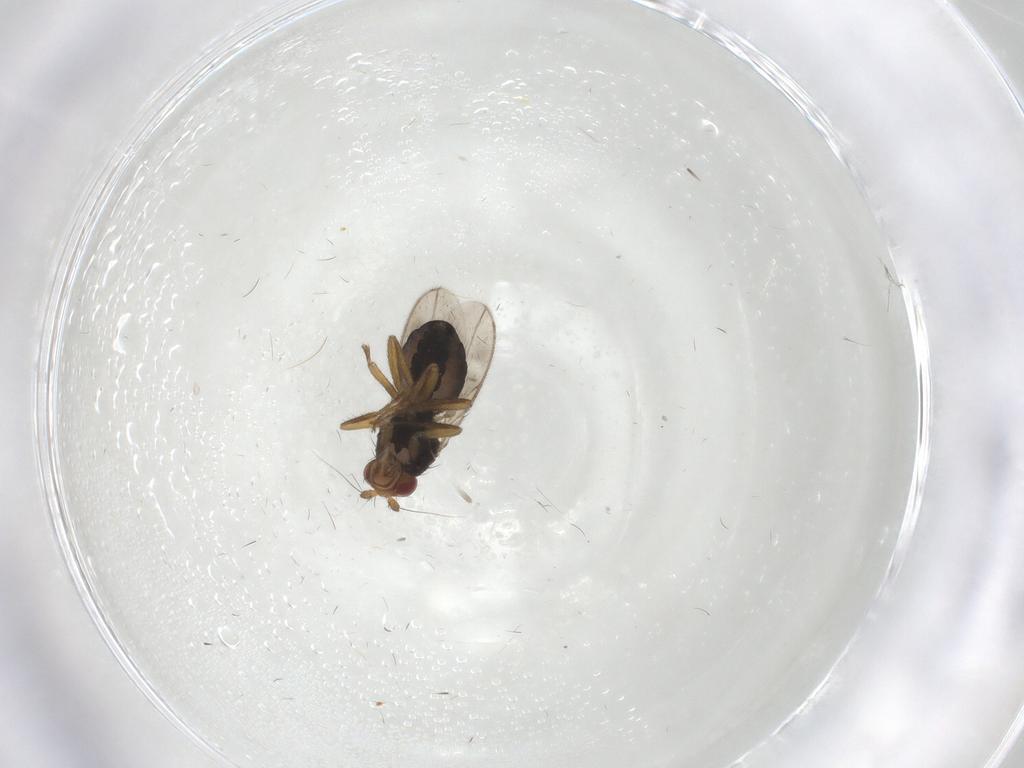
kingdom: Animalia
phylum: Arthropoda
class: Insecta
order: Diptera
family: Sphaeroceridae
